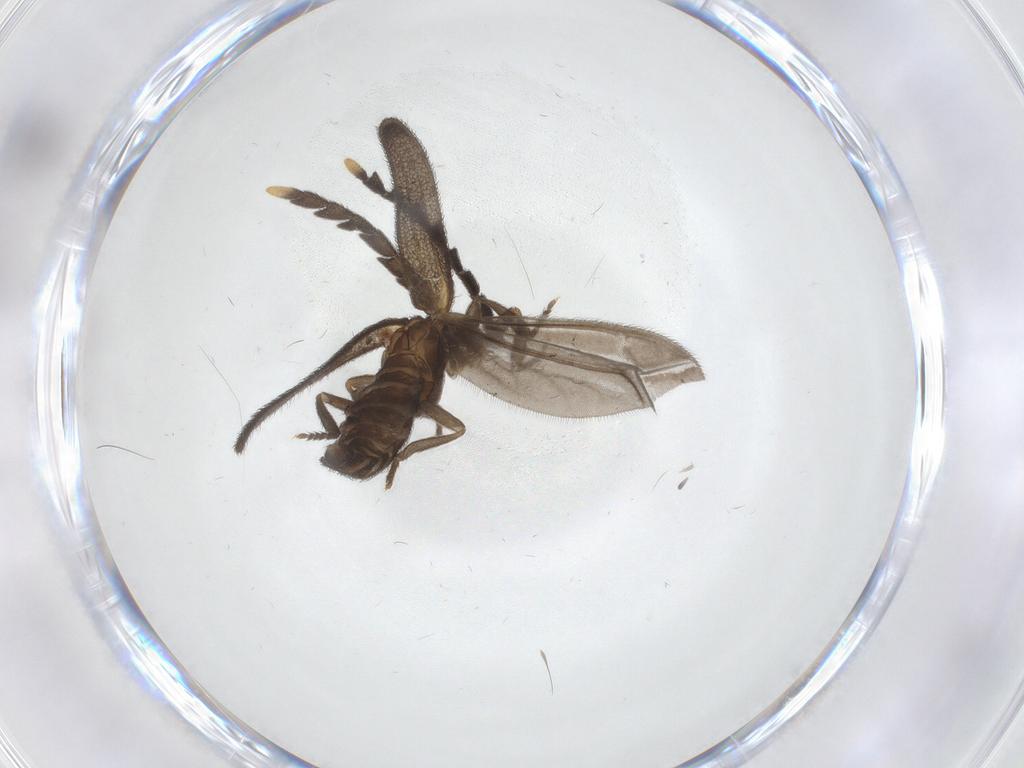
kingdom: Animalia
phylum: Arthropoda
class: Insecta
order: Coleoptera
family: Lycidae
